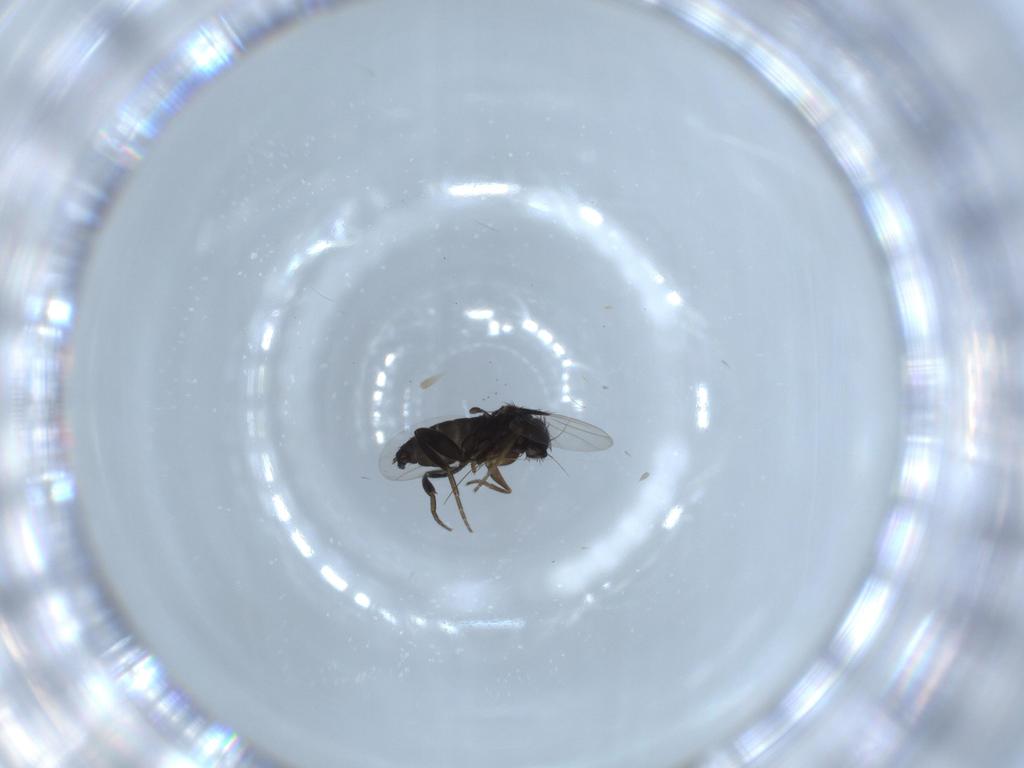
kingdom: Animalia
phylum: Arthropoda
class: Insecta
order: Diptera
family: Phoridae
